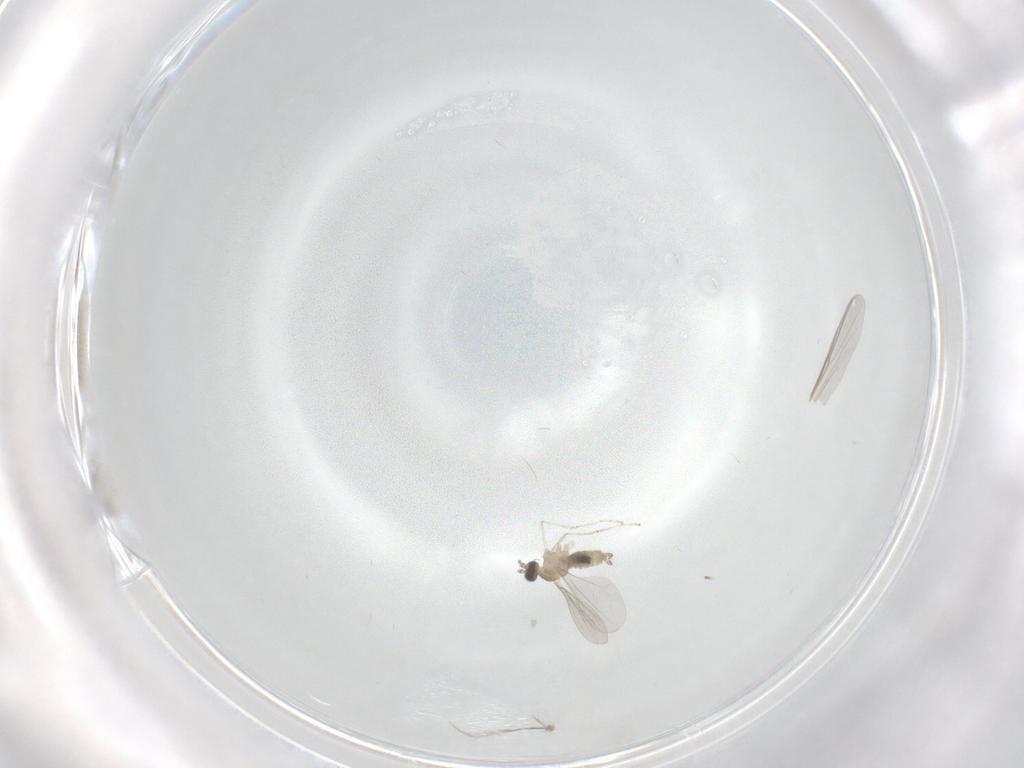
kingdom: Animalia
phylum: Arthropoda
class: Insecta
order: Diptera
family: Chironomidae
